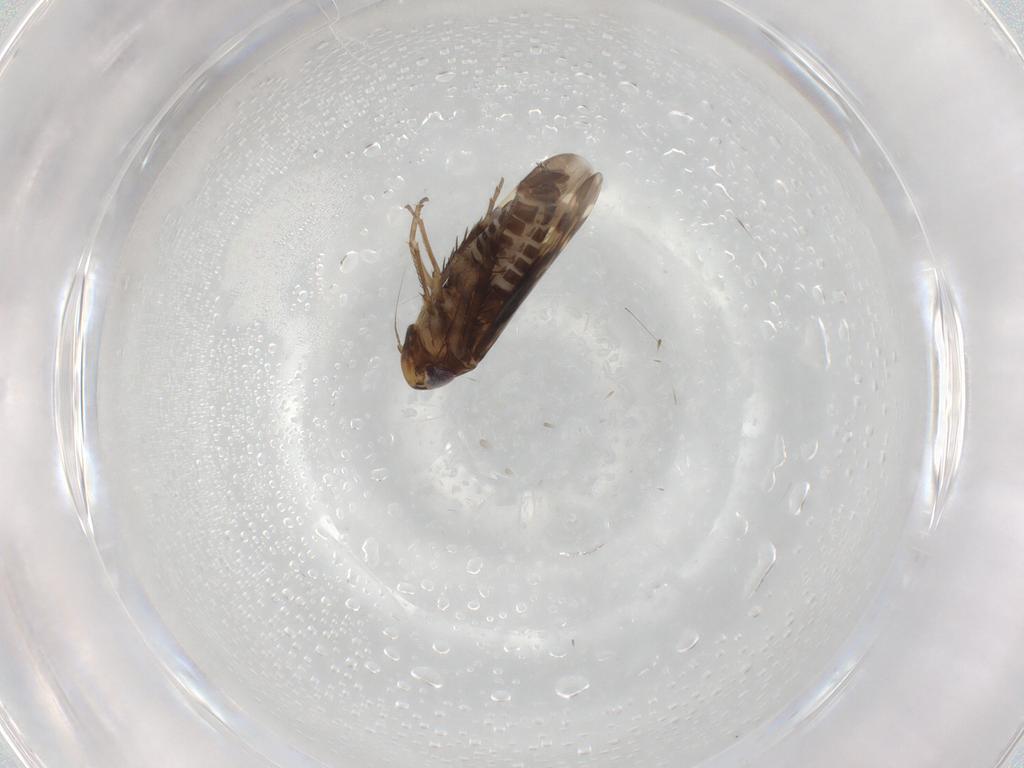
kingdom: Animalia
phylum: Arthropoda
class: Insecta
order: Hemiptera
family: Cicadellidae
